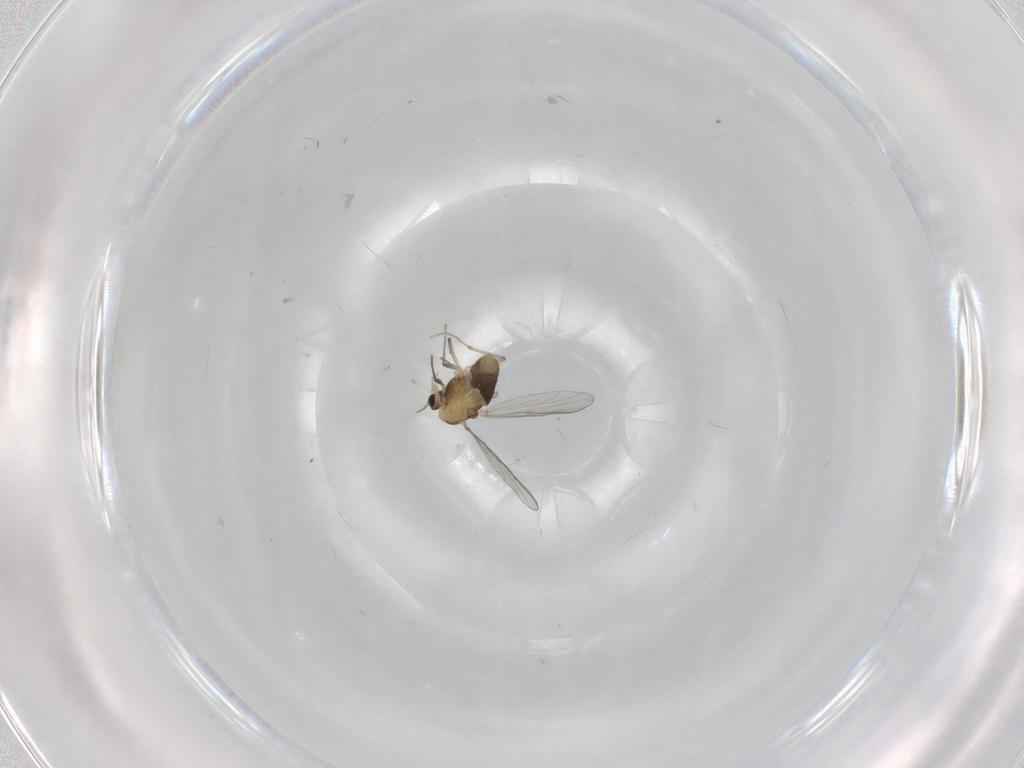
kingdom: Animalia
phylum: Arthropoda
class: Insecta
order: Diptera
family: Chironomidae
